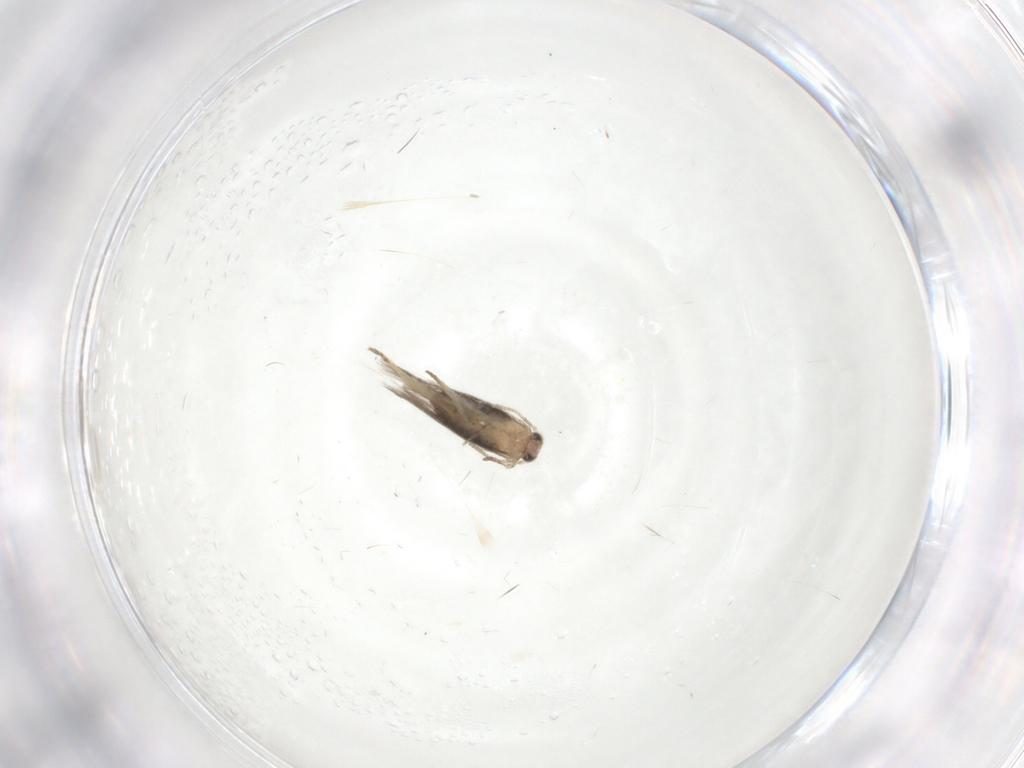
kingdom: Animalia
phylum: Arthropoda
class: Insecta
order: Lepidoptera
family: Nepticulidae
